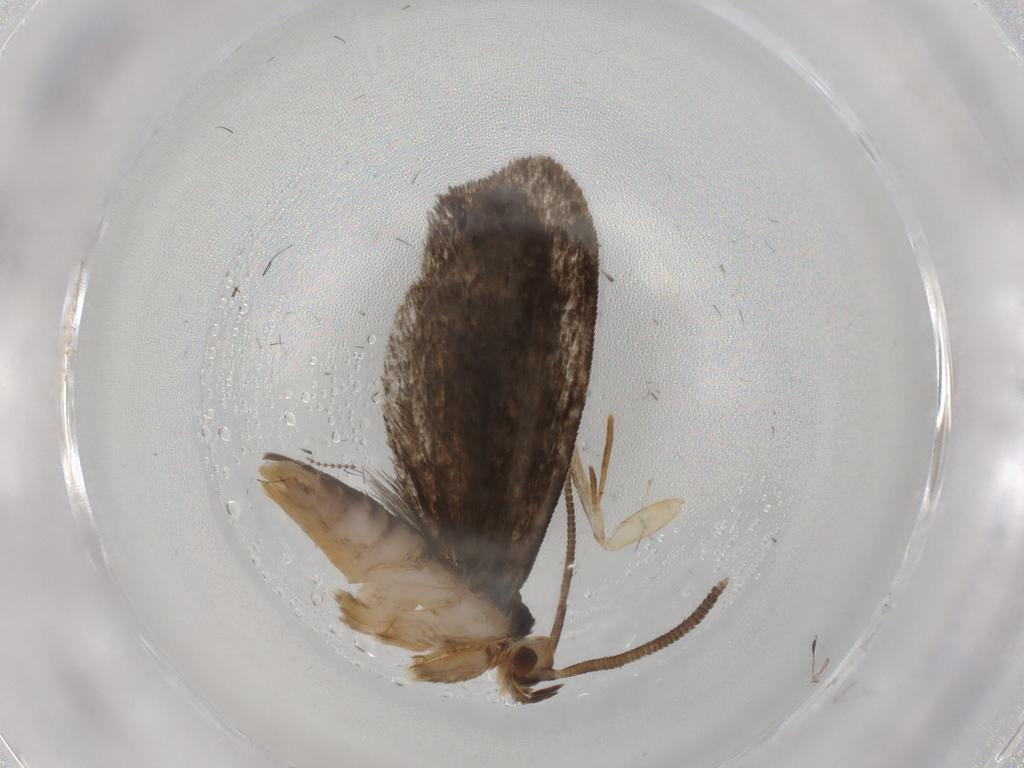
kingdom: Animalia
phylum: Arthropoda
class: Insecta
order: Lepidoptera
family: Dryadaulidae
